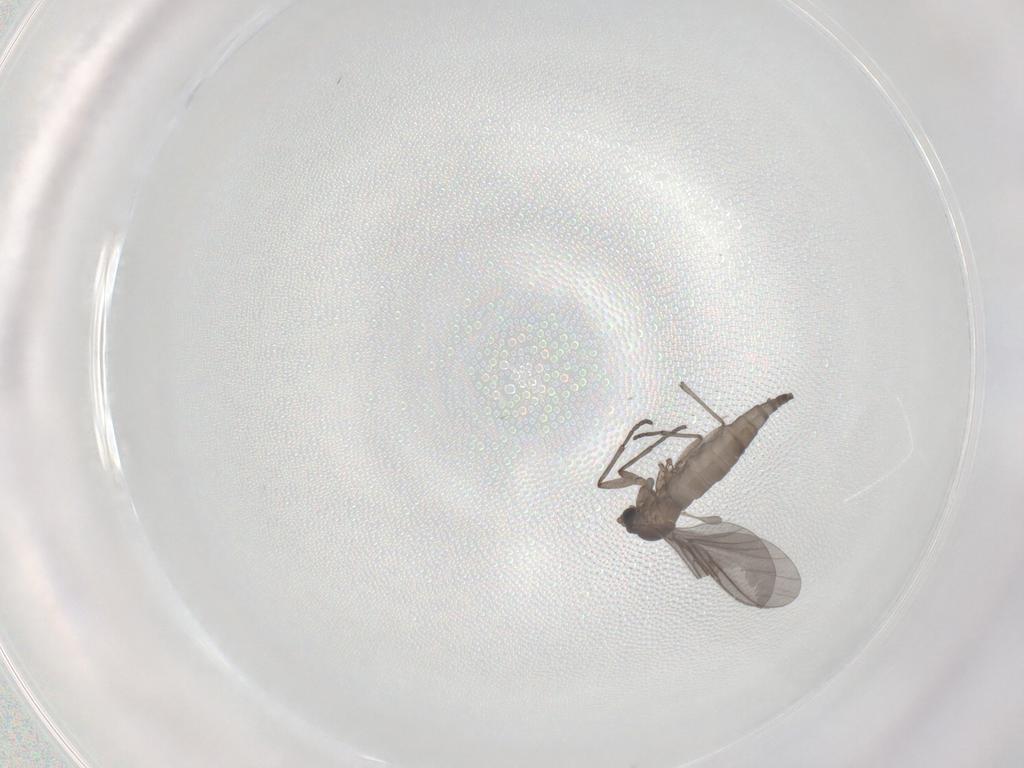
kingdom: Animalia
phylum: Arthropoda
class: Insecta
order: Diptera
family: Sciaridae
